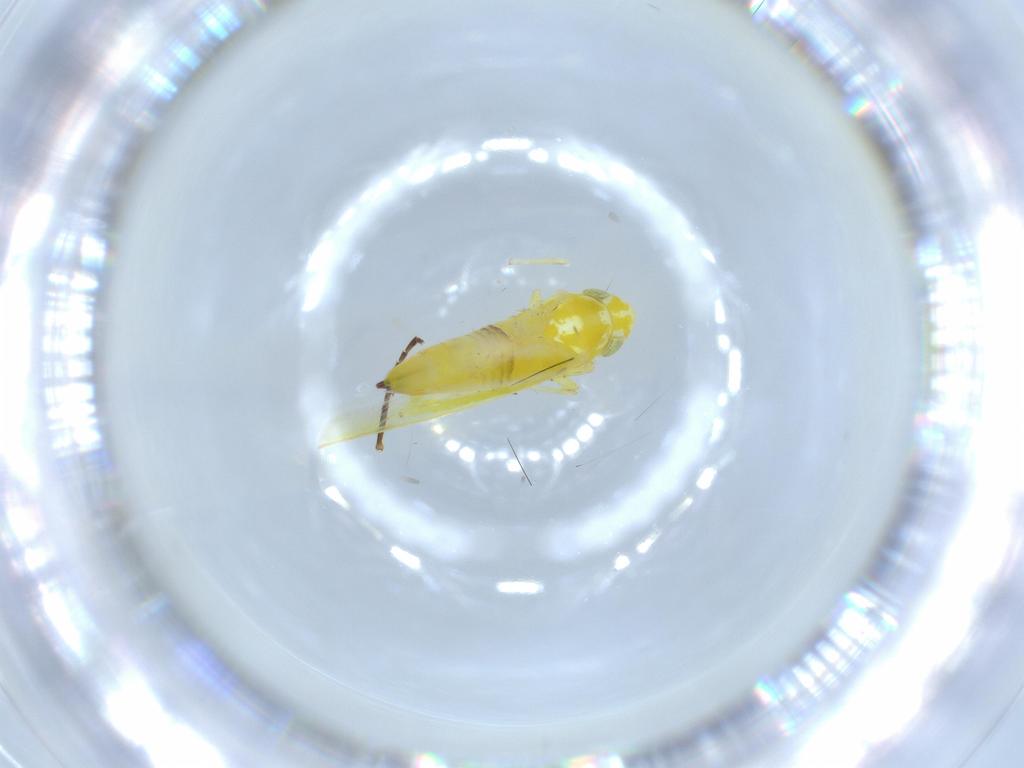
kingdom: Animalia
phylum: Arthropoda
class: Insecta
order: Hemiptera
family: Cicadellidae
